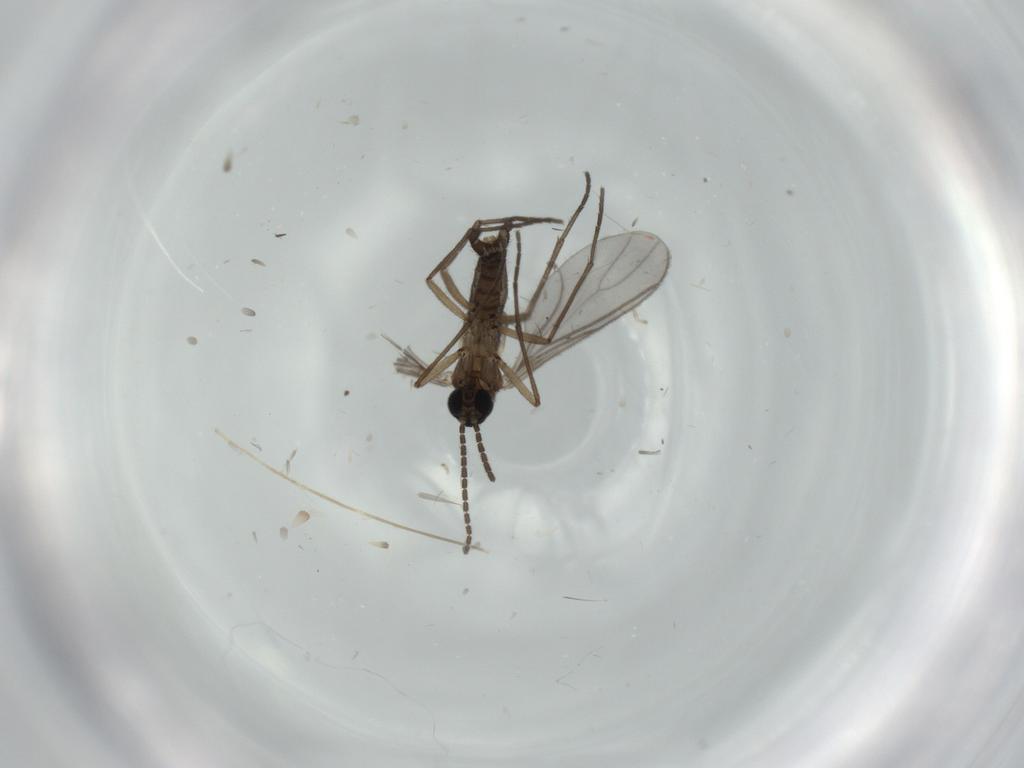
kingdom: Animalia
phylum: Arthropoda
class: Insecta
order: Diptera
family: Sciaridae
